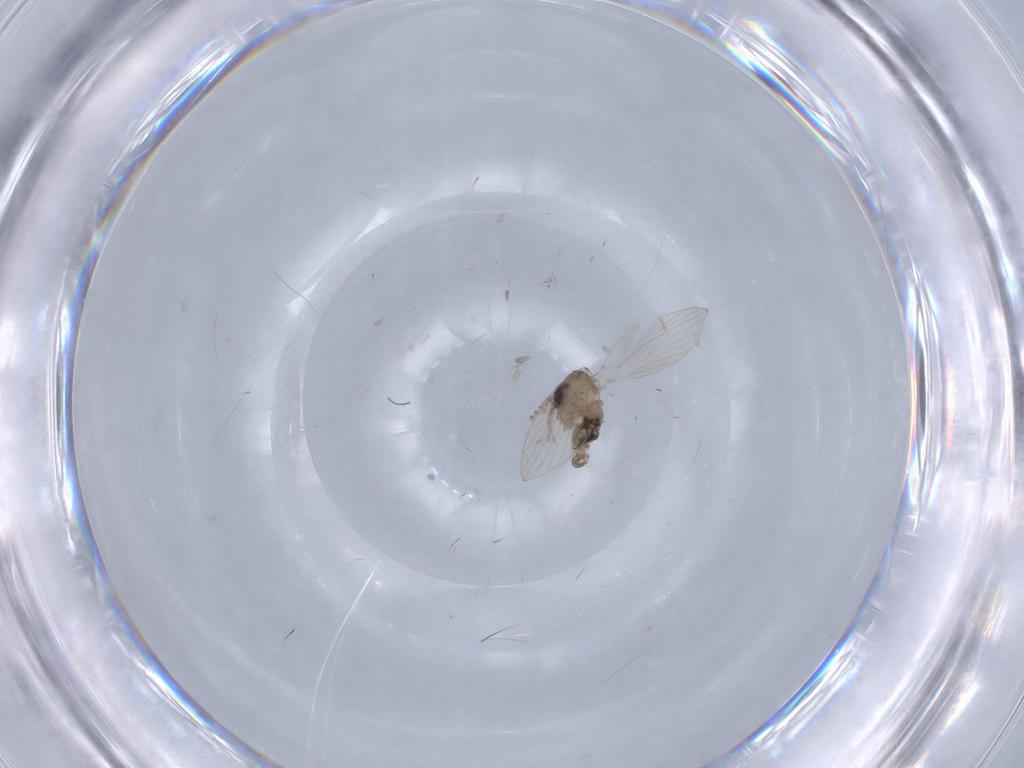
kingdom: Animalia
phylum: Arthropoda
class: Insecta
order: Diptera
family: Psychodidae
